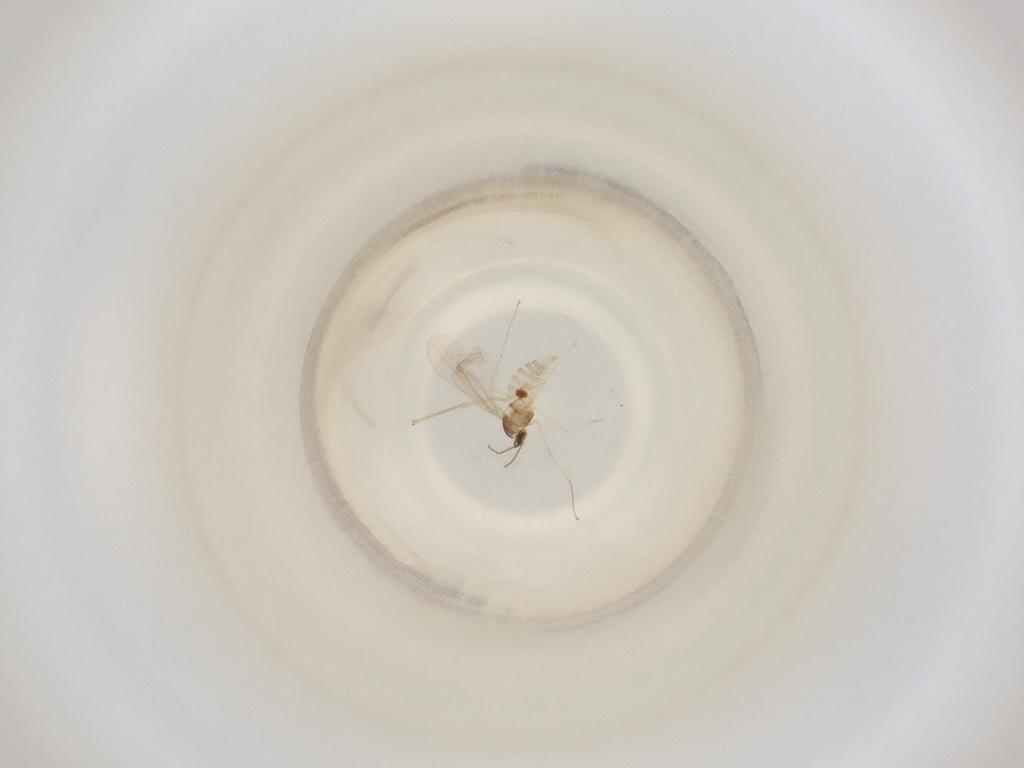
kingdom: Animalia
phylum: Arthropoda
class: Insecta
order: Diptera
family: Cecidomyiidae
